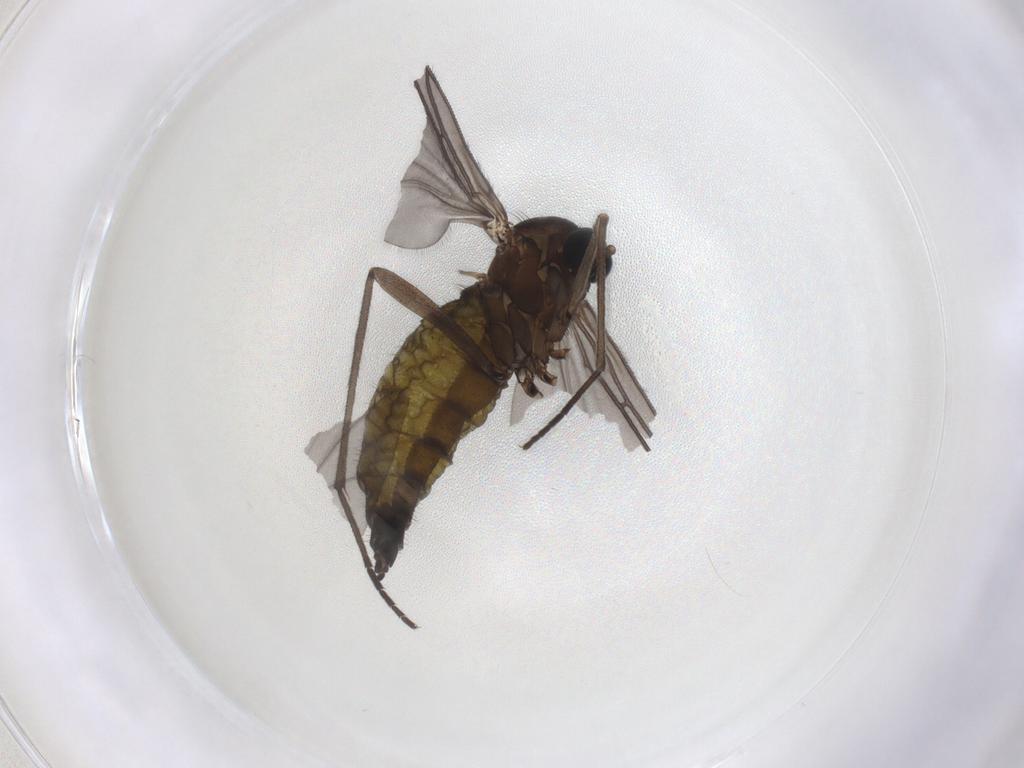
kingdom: Animalia
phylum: Arthropoda
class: Insecta
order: Diptera
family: Sciaridae
